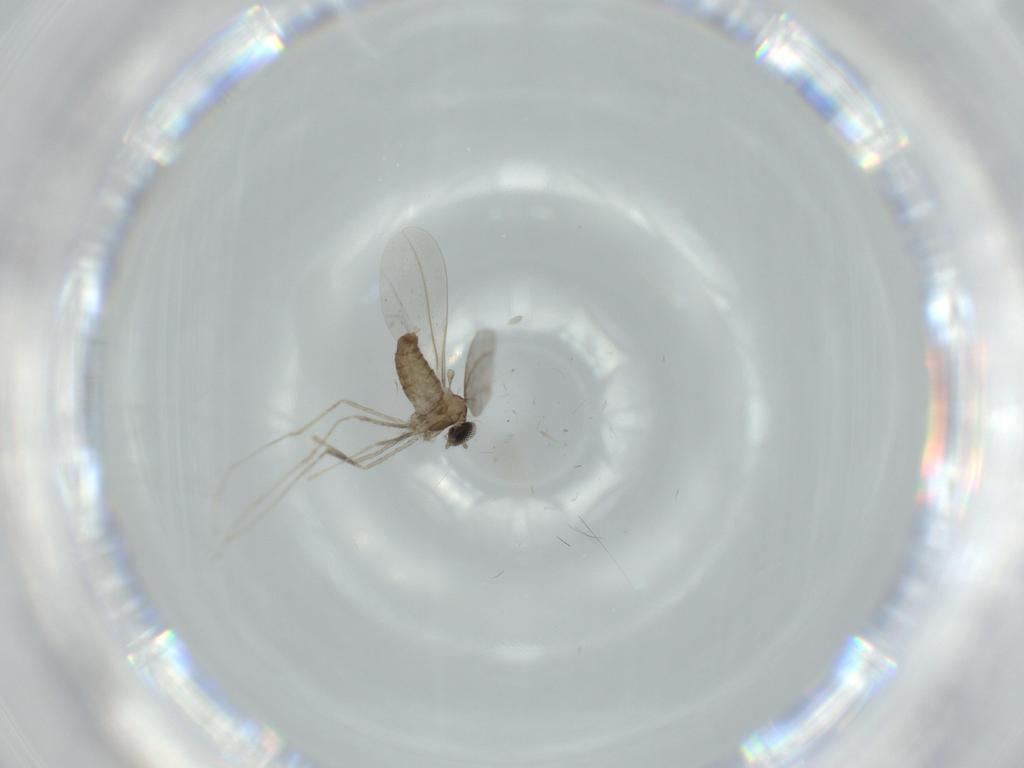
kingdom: Animalia
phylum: Arthropoda
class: Insecta
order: Diptera
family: Cecidomyiidae
